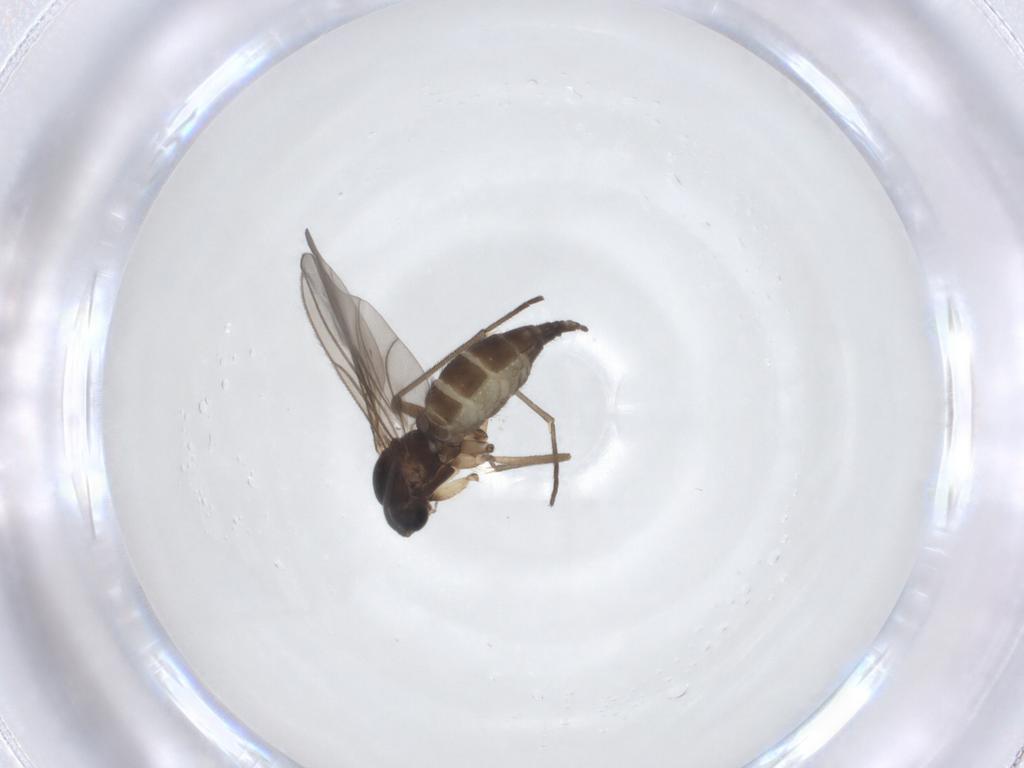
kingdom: Animalia
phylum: Arthropoda
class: Insecta
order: Diptera
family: Sciaridae
